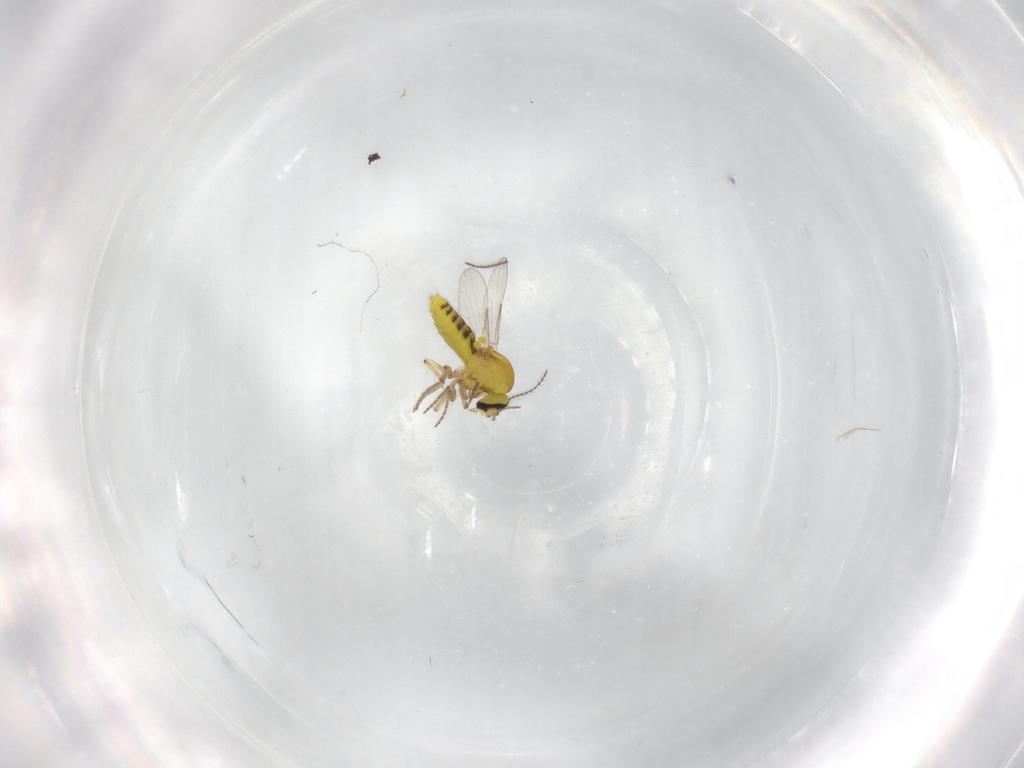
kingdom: Animalia
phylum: Arthropoda
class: Insecta
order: Diptera
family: Ceratopogonidae
